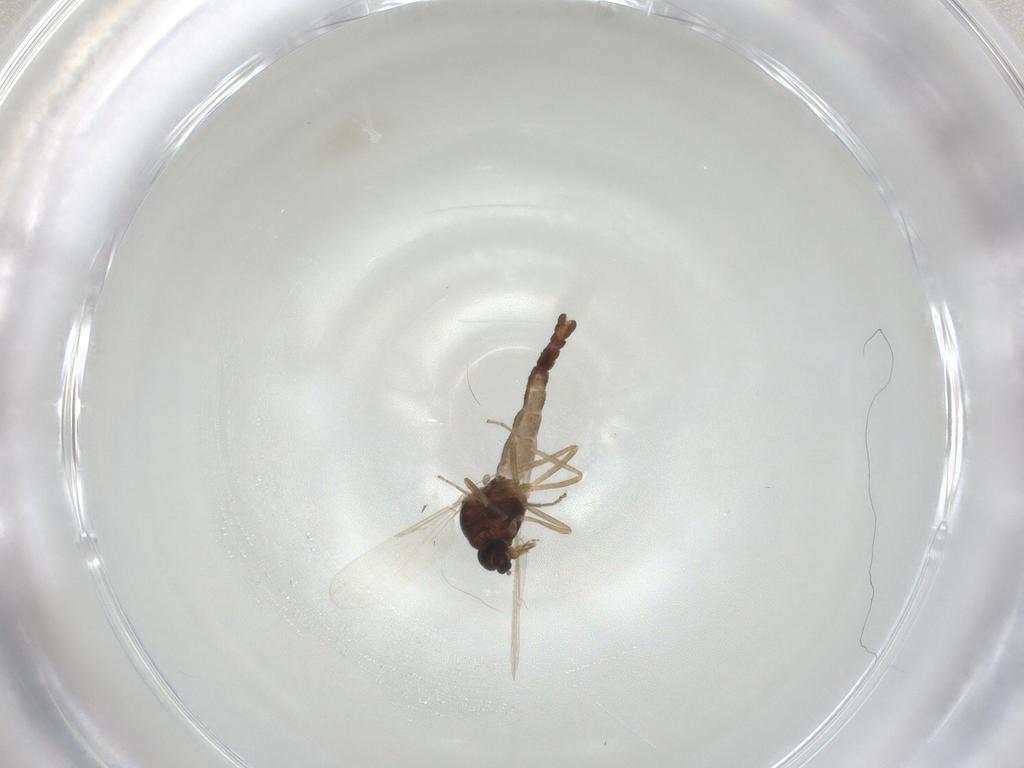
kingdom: Animalia
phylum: Arthropoda
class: Insecta
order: Diptera
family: Ceratopogonidae
